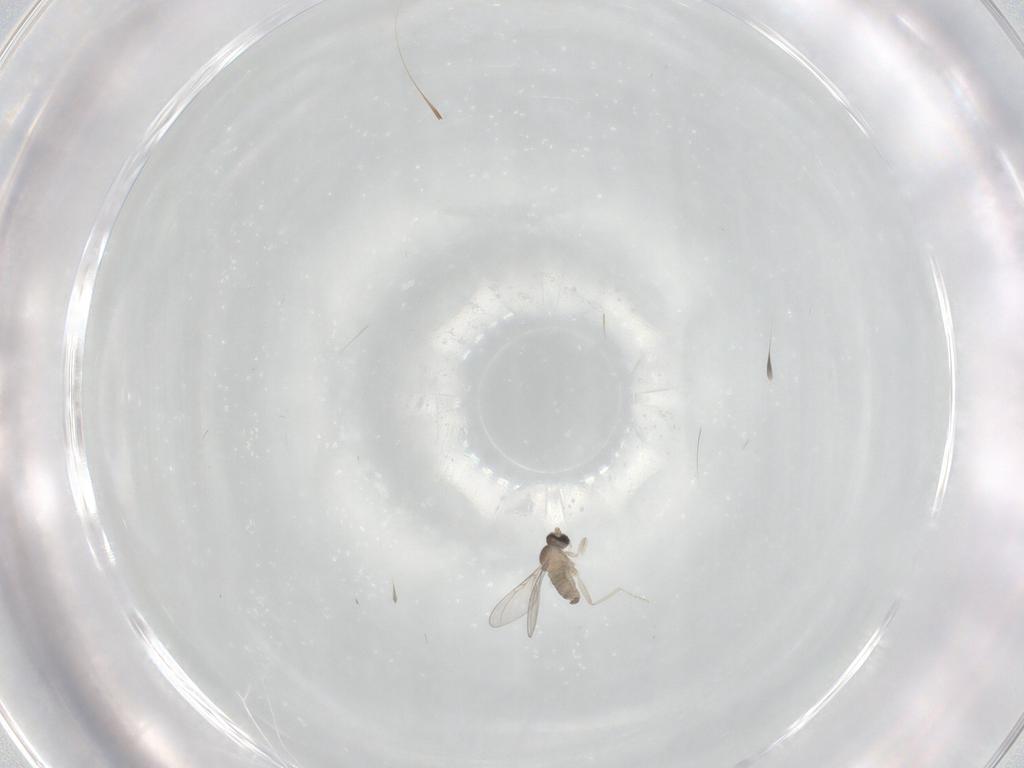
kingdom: Animalia
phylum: Arthropoda
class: Insecta
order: Diptera
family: Cecidomyiidae
